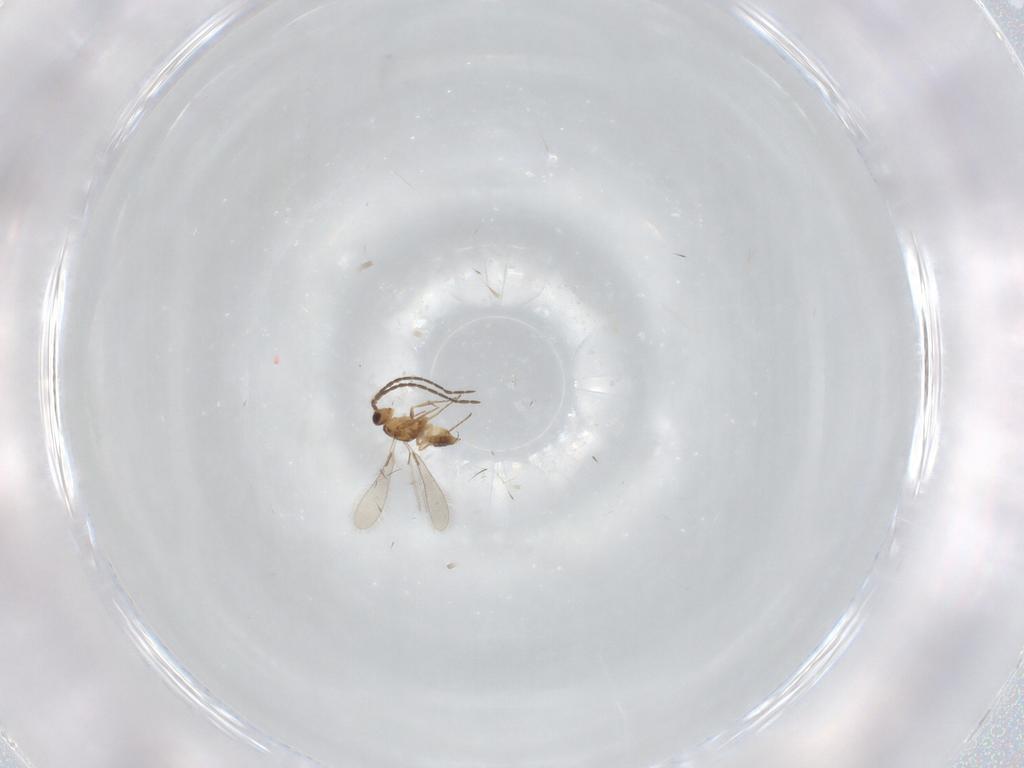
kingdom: Animalia
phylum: Arthropoda
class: Insecta
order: Hymenoptera
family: Mymaridae
